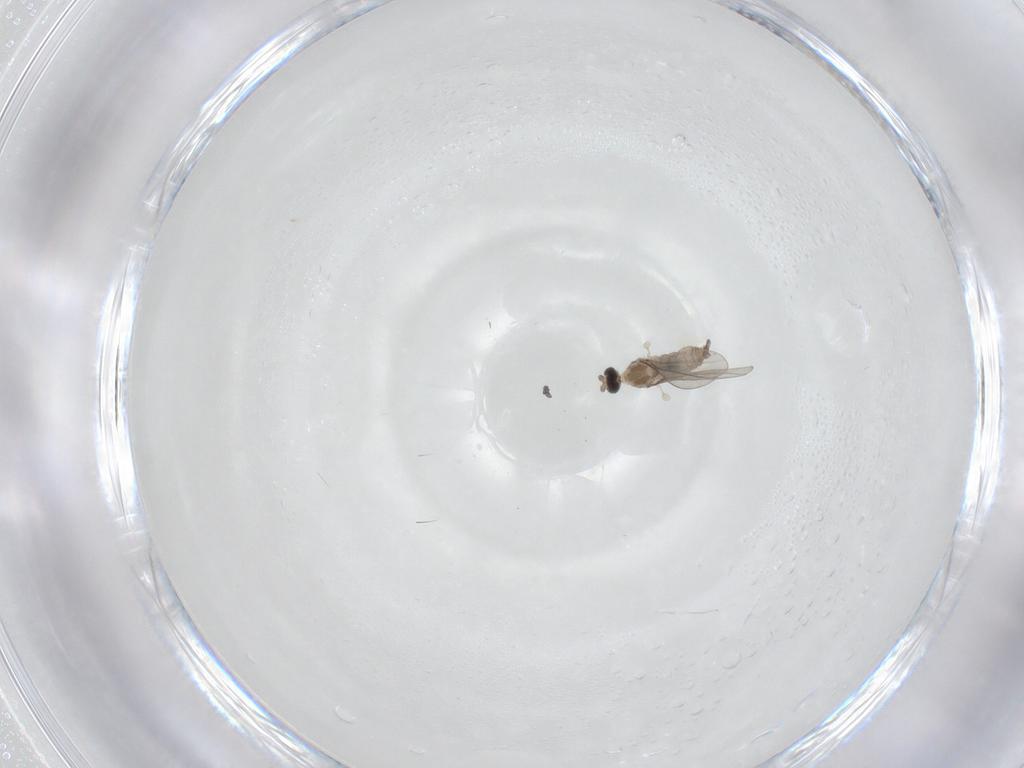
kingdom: Animalia
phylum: Arthropoda
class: Insecta
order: Diptera
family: Cecidomyiidae
